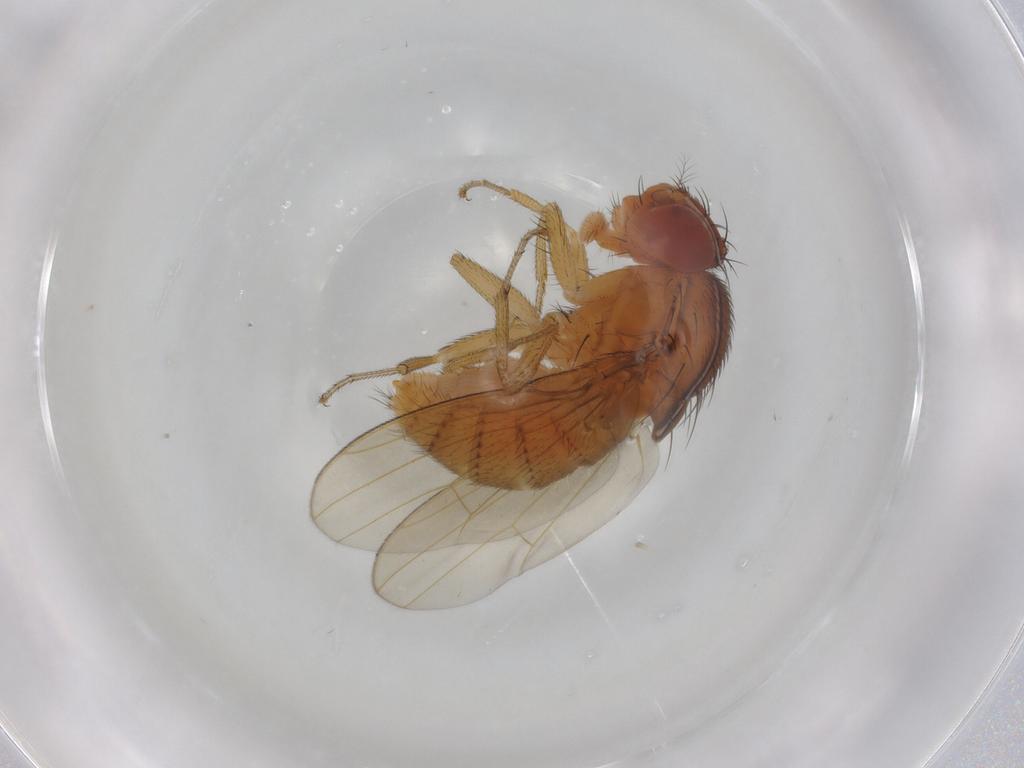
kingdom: Animalia
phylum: Arthropoda
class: Insecta
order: Diptera
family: Drosophilidae
